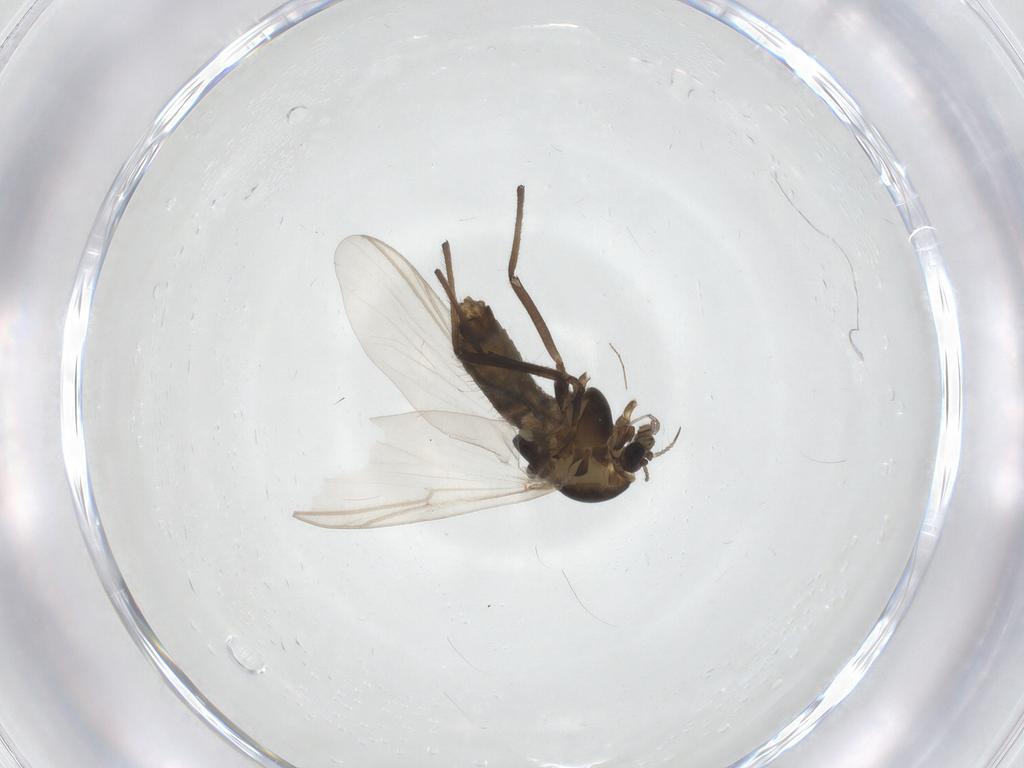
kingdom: Animalia
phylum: Arthropoda
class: Insecta
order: Diptera
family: Chironomidae
